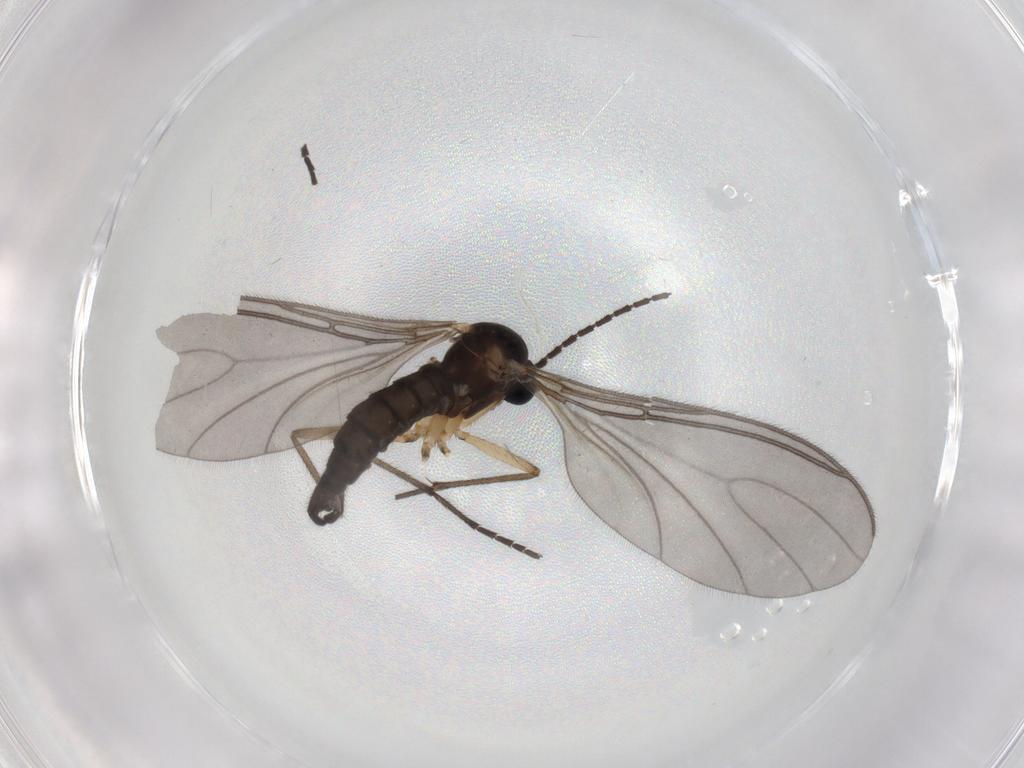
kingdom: Animalia
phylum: Arthropoda
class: Insecta
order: Diptera
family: Sciaridae
